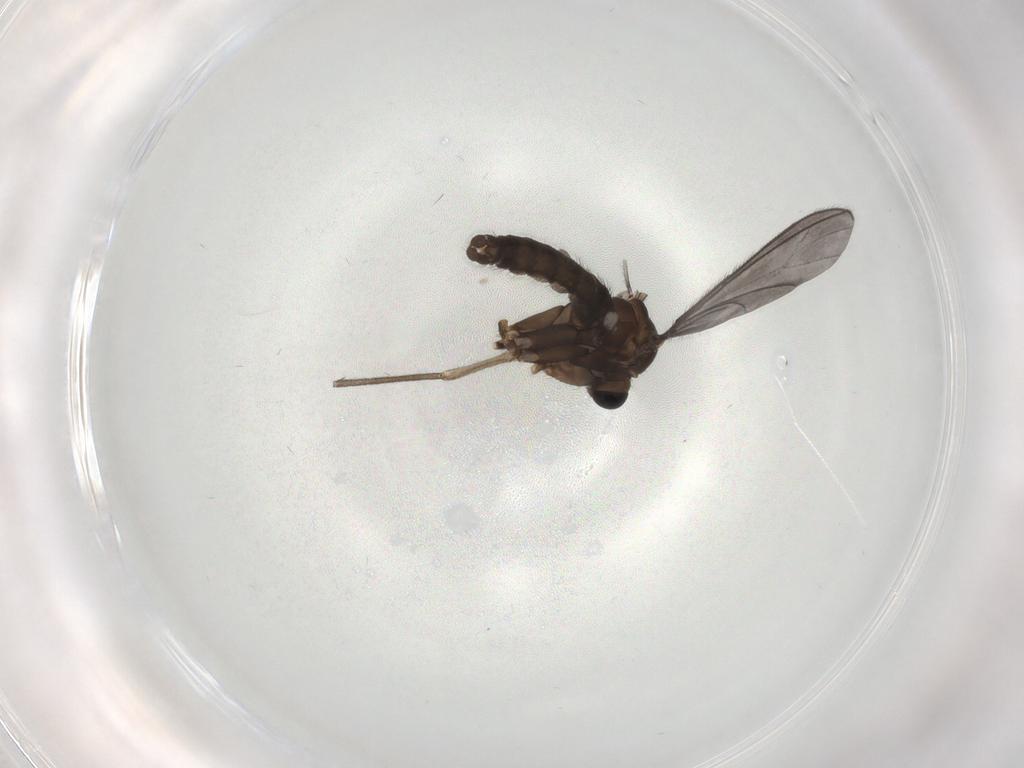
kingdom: Animalia
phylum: Arthropoda
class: Insecta
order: Diptera
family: Sciaridae
